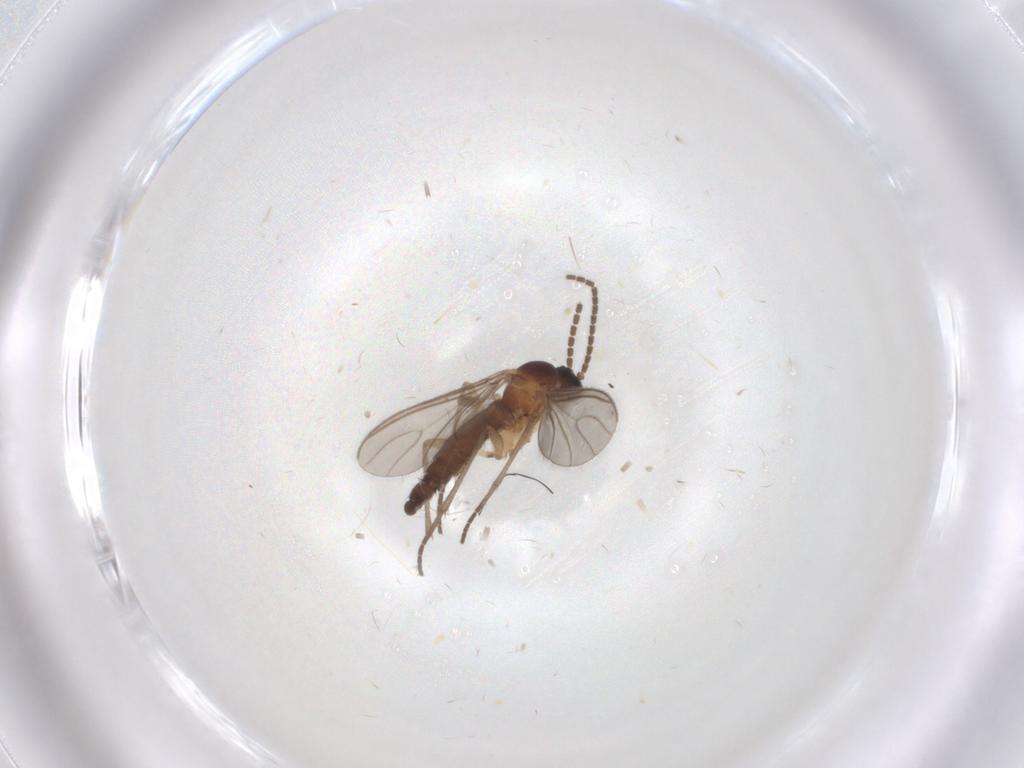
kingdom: Animalia
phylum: Arthropoda
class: Insecta
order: Diptera
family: Sciaridae
